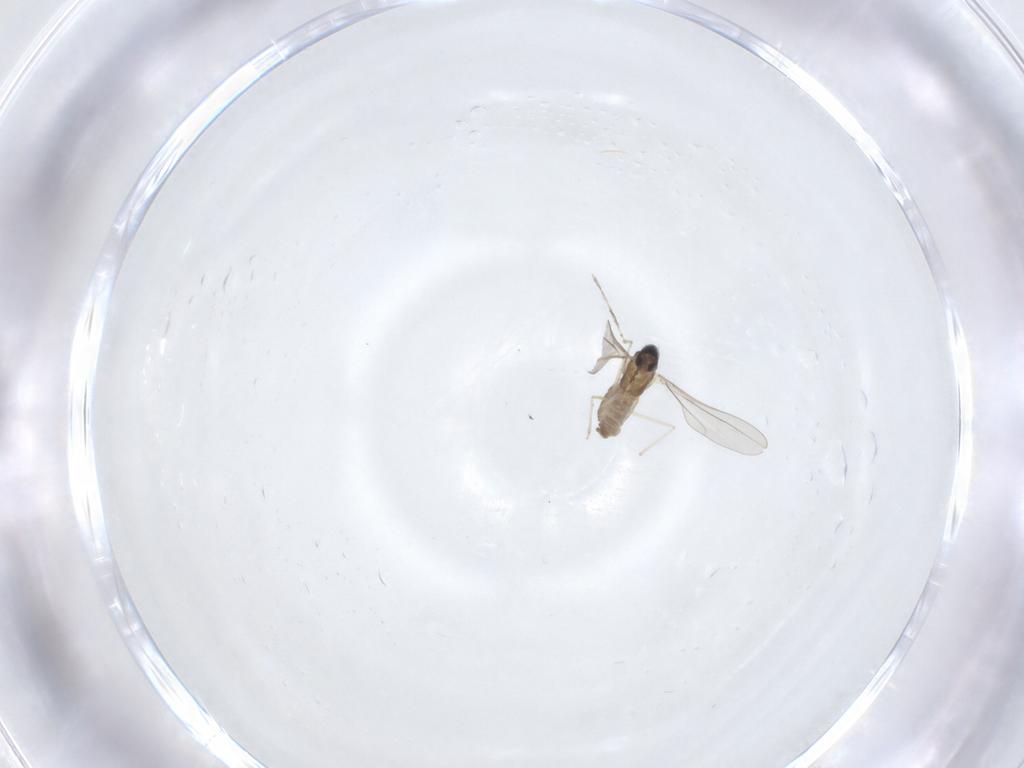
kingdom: Animalia
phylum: Arthropoda
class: Insecta
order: Diptera
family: Cecidomyiidae
